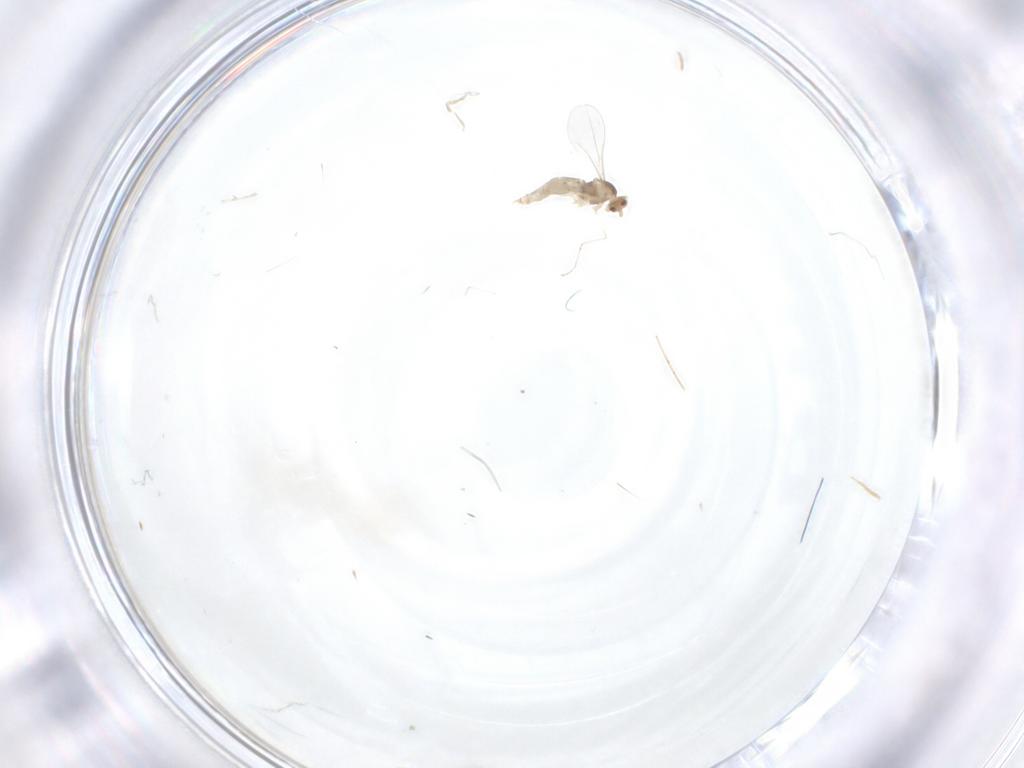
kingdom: Animalia
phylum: Arthropoda
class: Insecta
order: Diptera
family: Cecidomyiidae
